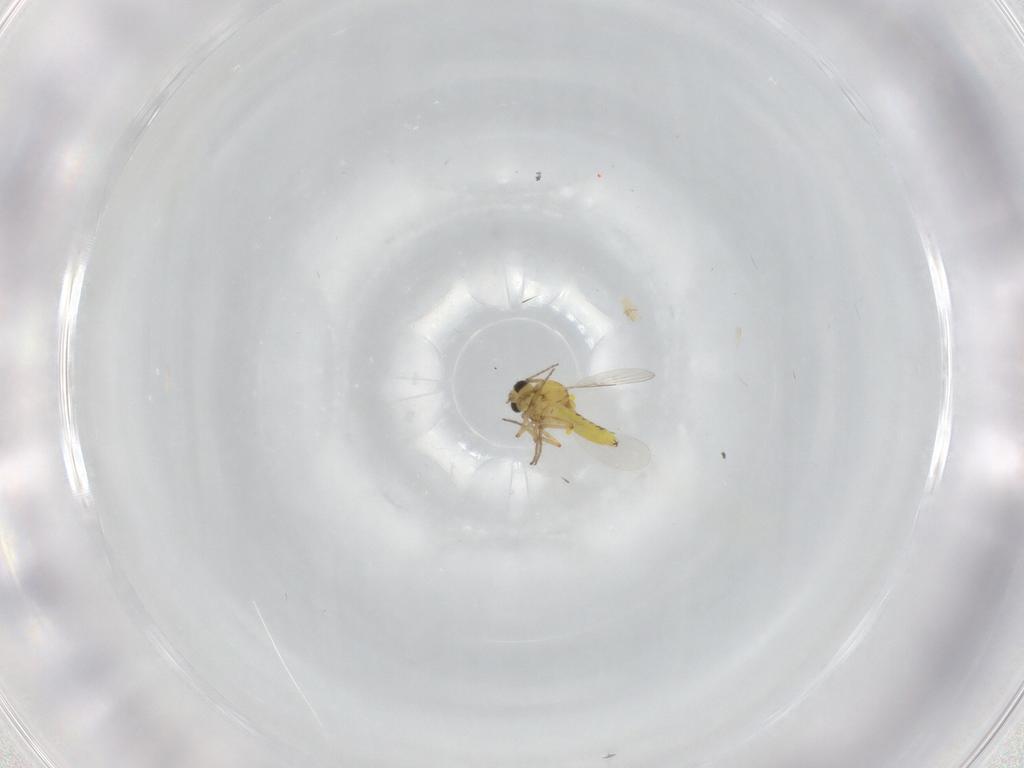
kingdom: Animalia
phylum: Arthropoda
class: Insecta
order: Diptera
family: Ceratopogonidae
